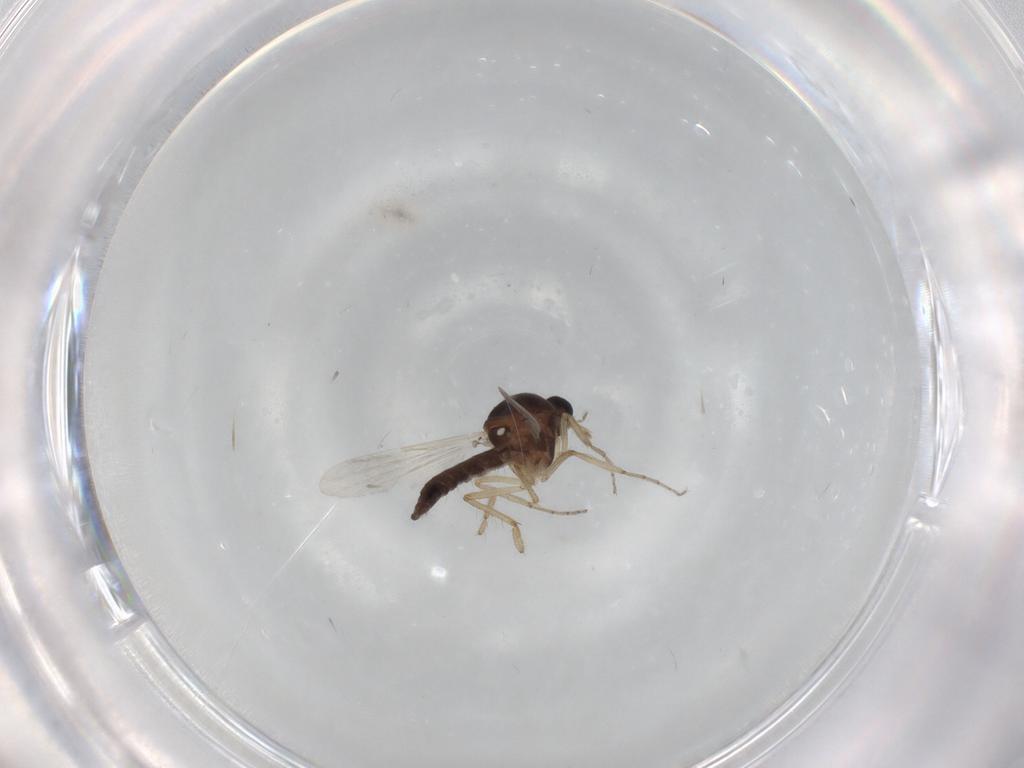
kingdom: Animalia
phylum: Arthropoda
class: Insecta
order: Diptera
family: Ceratopogonidae
